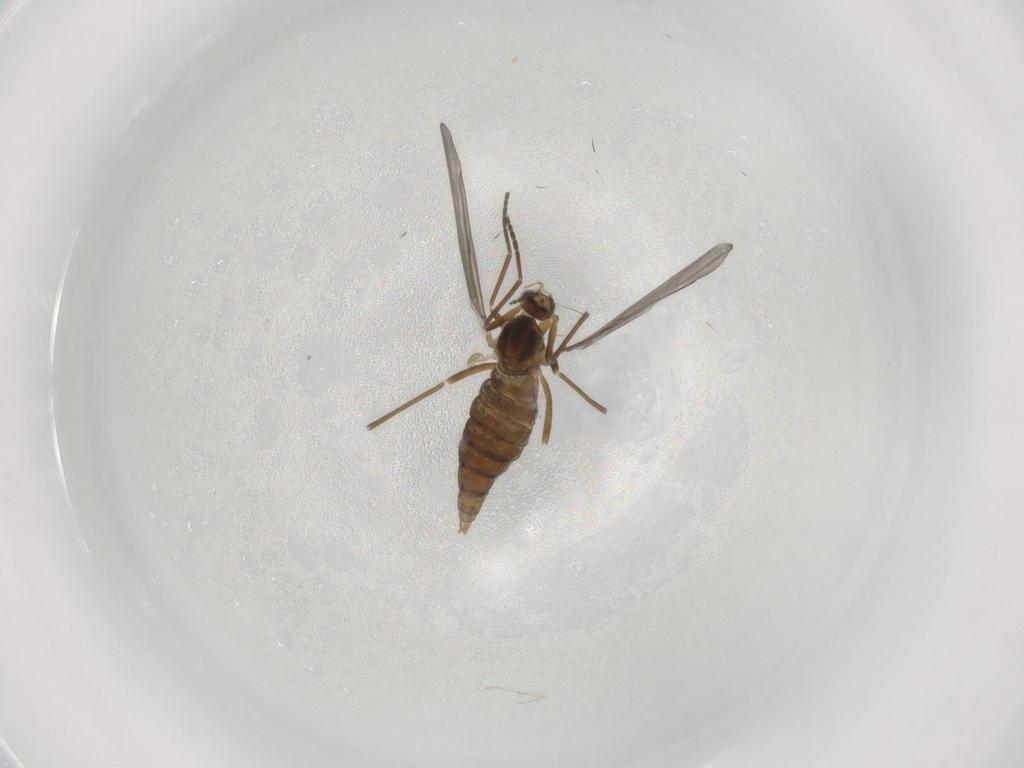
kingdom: Animalia
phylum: Arthropoda
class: Insecta
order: Diptera
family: Cecidomyiidae
